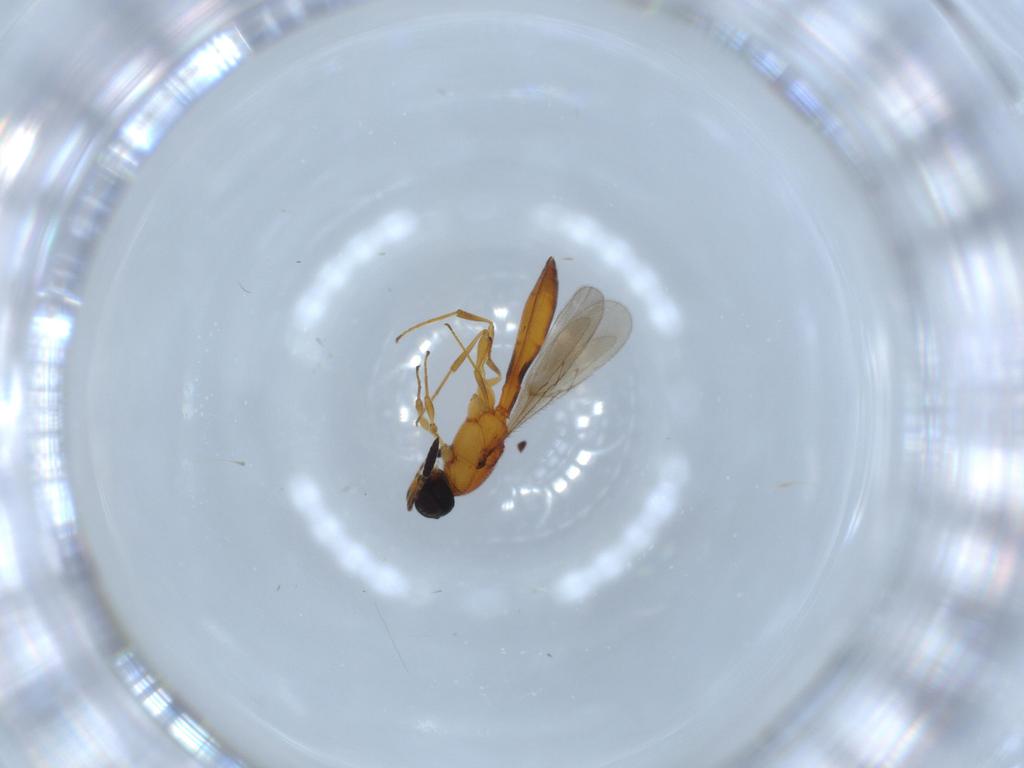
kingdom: Animalia
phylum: Arthropoda
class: Insecta
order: Hymenoptera
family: Scelionidae
